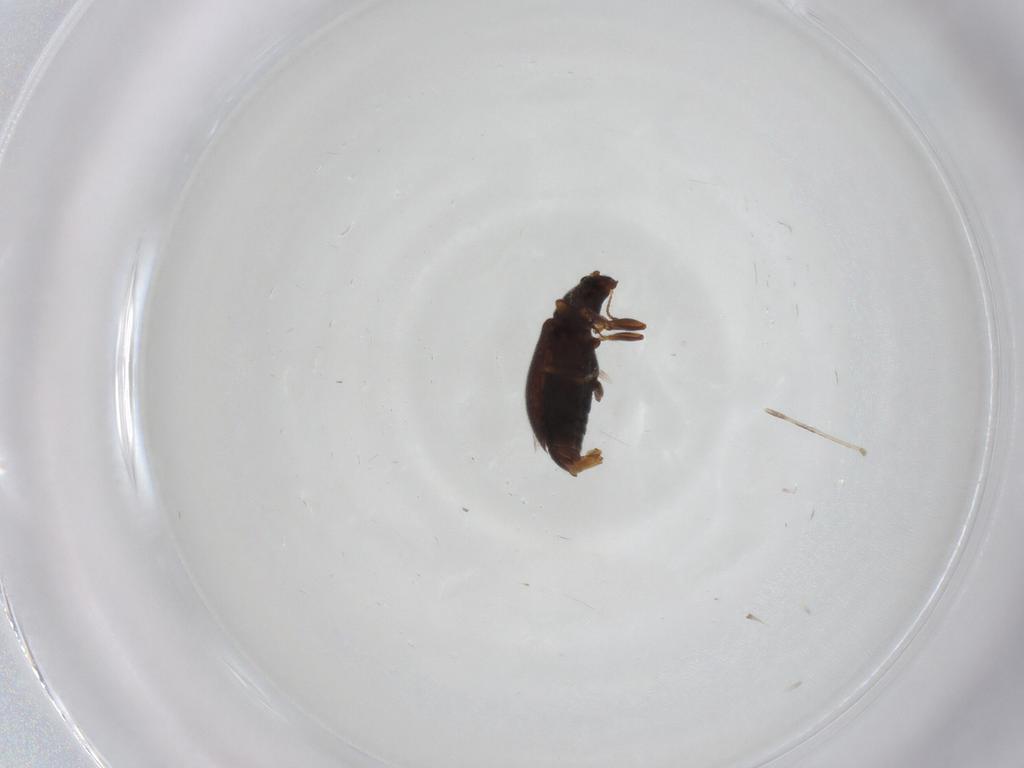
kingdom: Animalia
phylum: Arthropoda
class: Insecta
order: Coleoptera
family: Latridiidae
